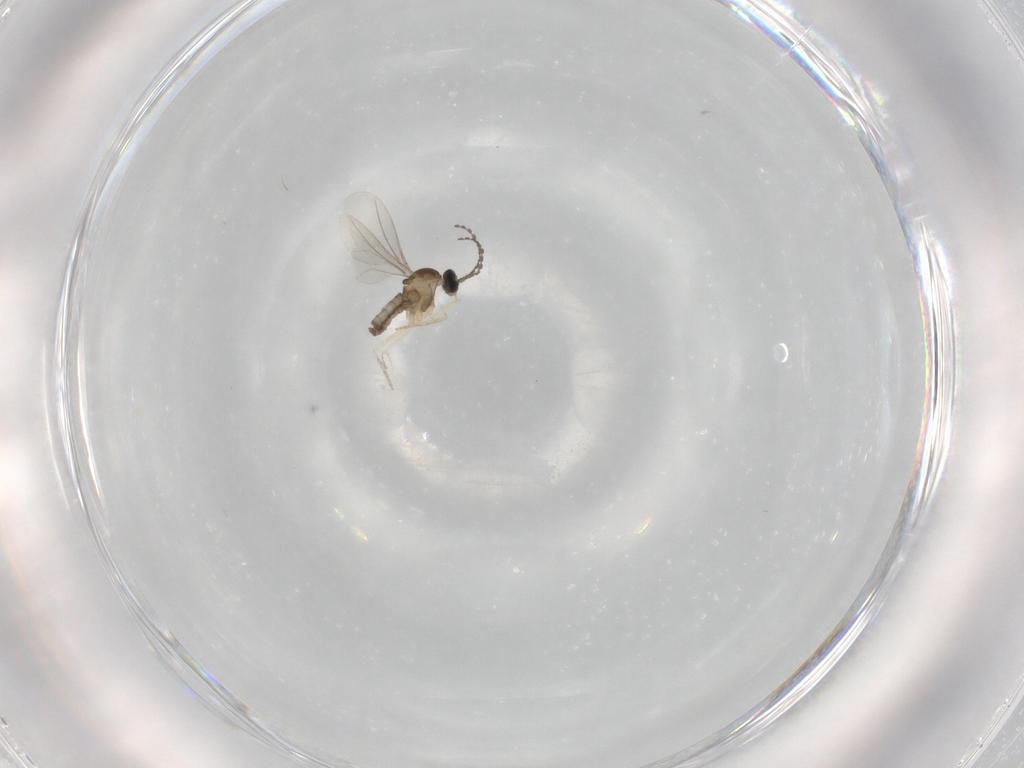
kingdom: Animalia
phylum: Arthropoda
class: Insecta
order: Diptera
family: Cecidomyiidae
